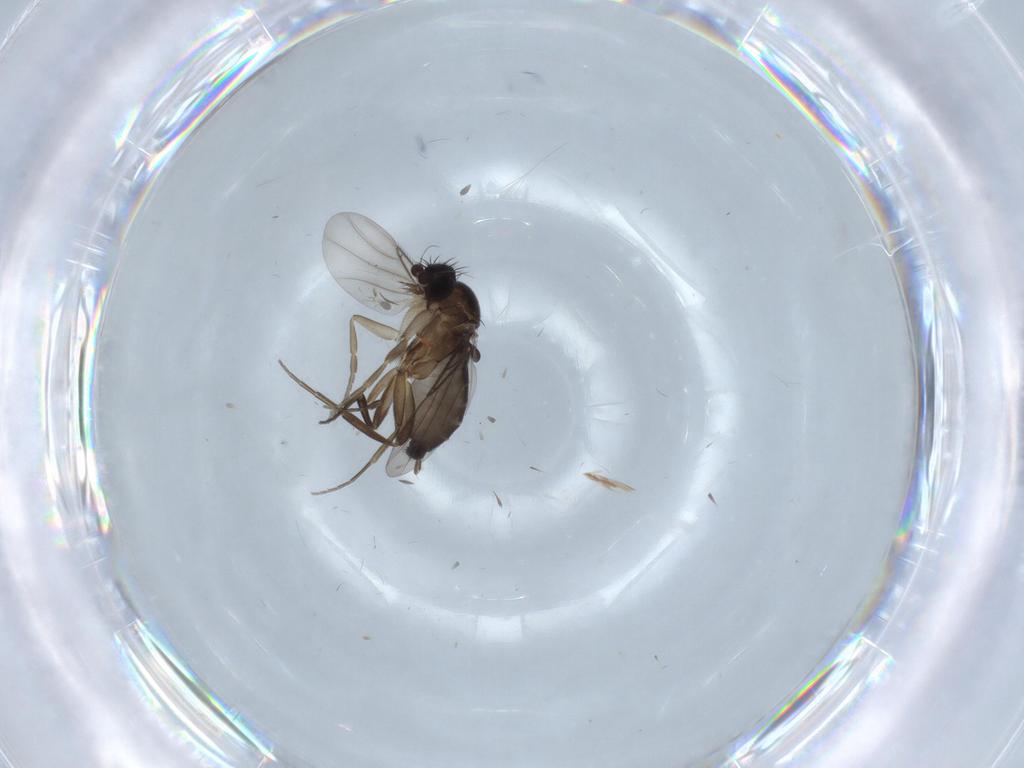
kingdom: Animalia
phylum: Arthropoda
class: Insecta
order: Diptera
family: Phoridae
